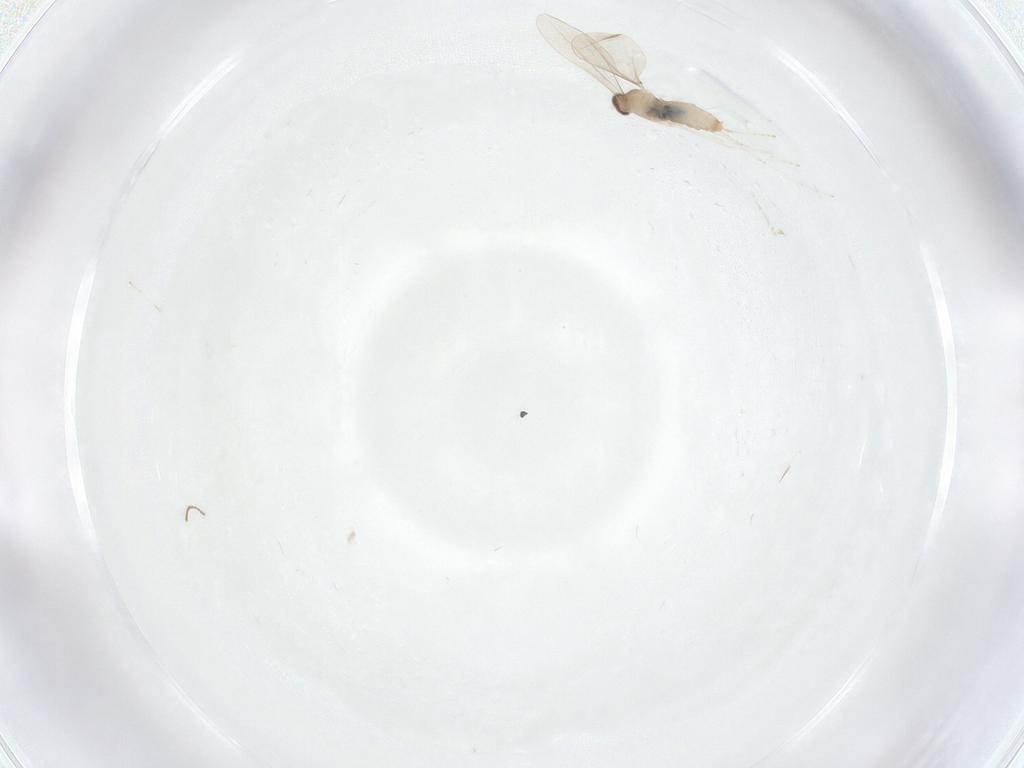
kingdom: Animalia
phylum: Arthropoda
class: Insecta
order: Diptera
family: Cecidomyiidae
